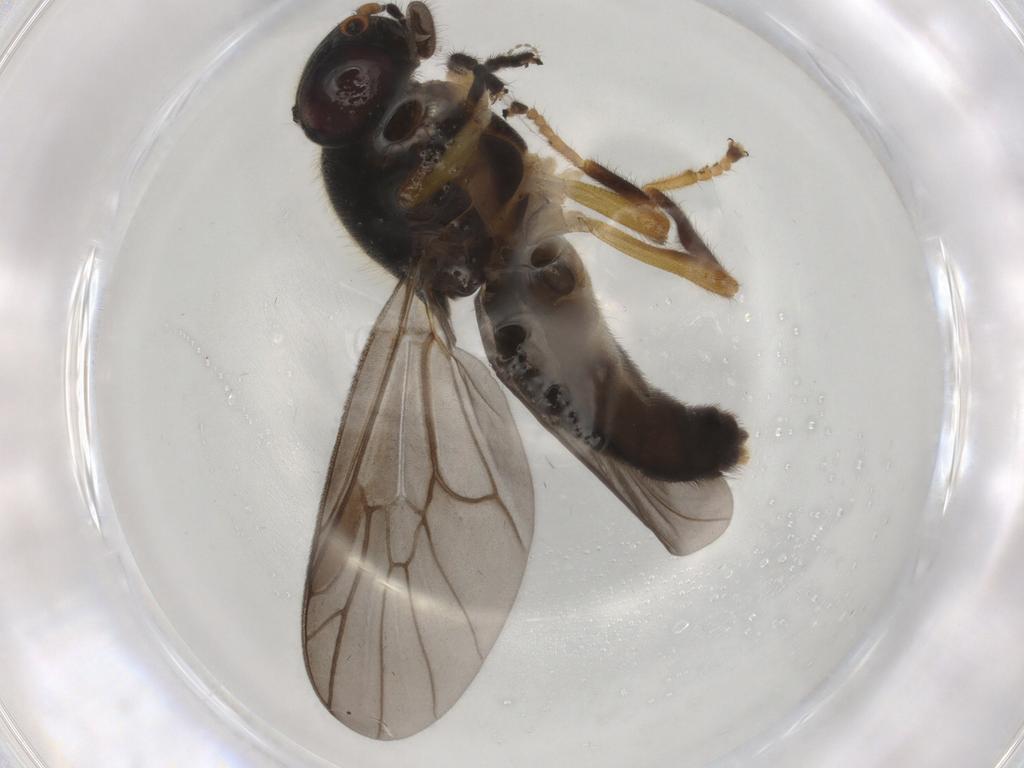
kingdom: Animalia
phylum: Arthropoda
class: Insecta
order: Diptera
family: Stratiomyidae
